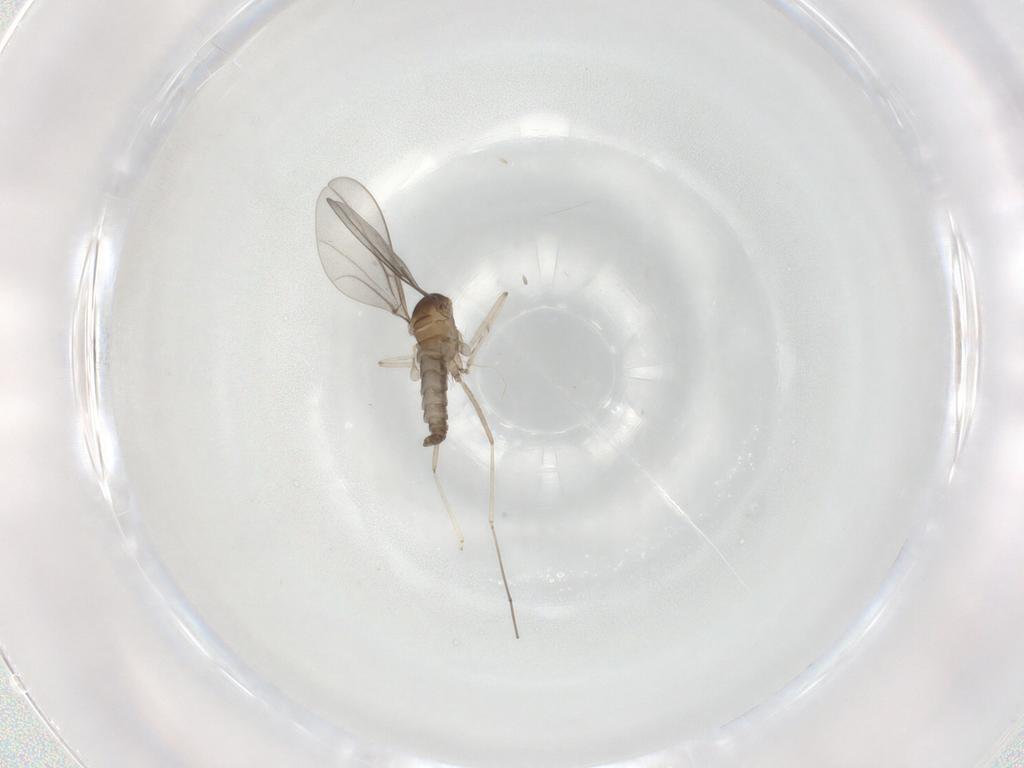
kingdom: Animalia
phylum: Arthropoda
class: Insecta
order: Diptera
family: Cecidomyiidae
